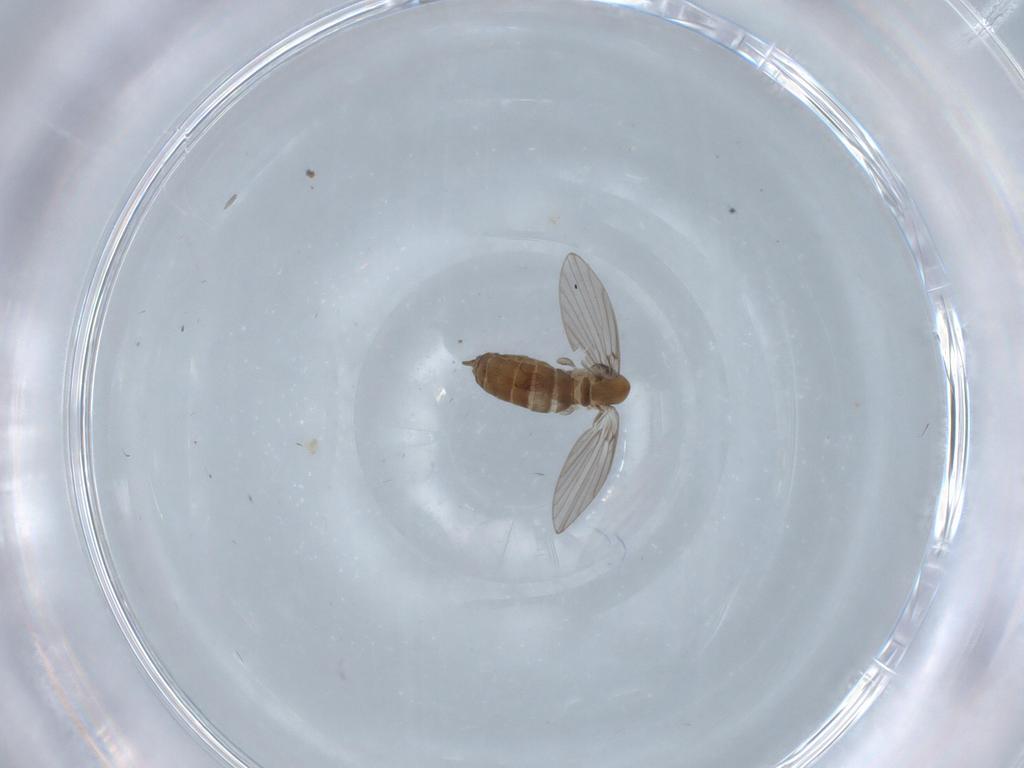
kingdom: Animalia
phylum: Arthropoda
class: Insecta
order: Diptera
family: Psychodidae
